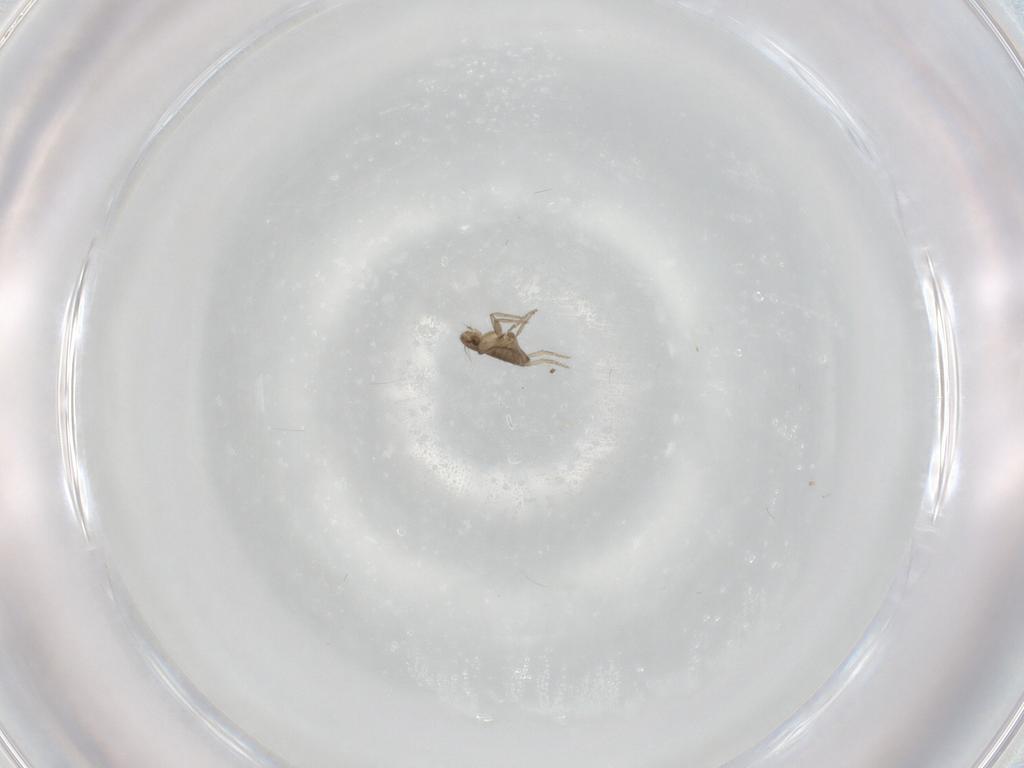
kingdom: Animalia
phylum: Arthropoda
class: Insecta
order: Diptera
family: Phoridae
